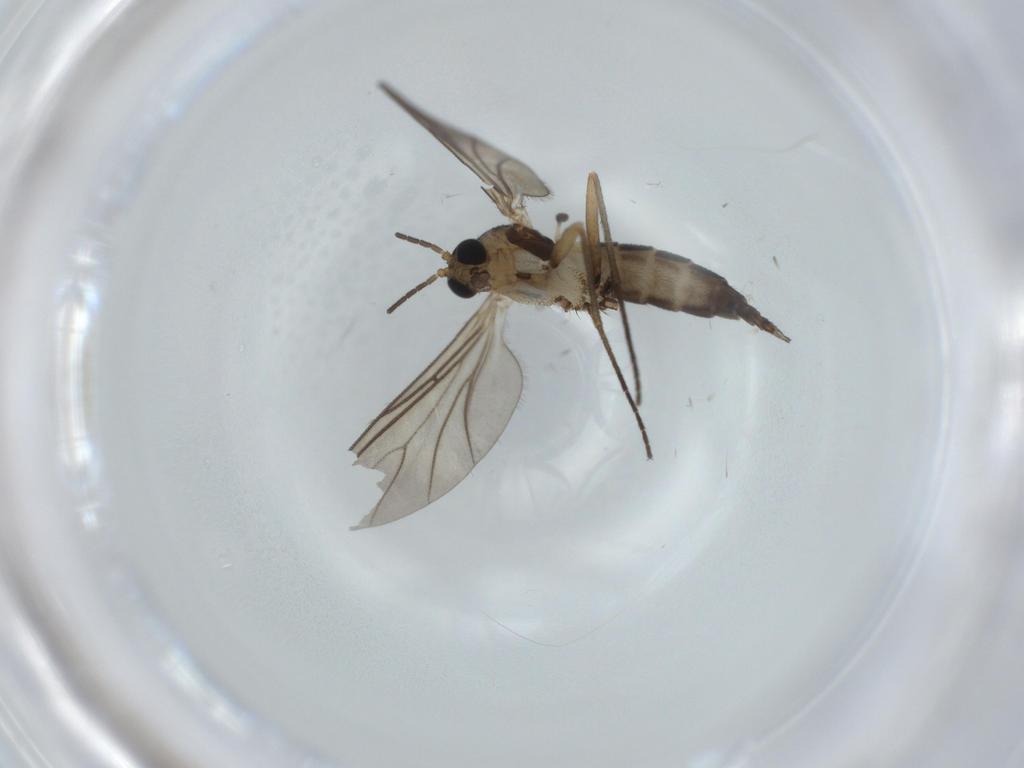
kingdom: Animalia
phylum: Arthropoda
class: Insecta
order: Diptera
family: Sciaridae
